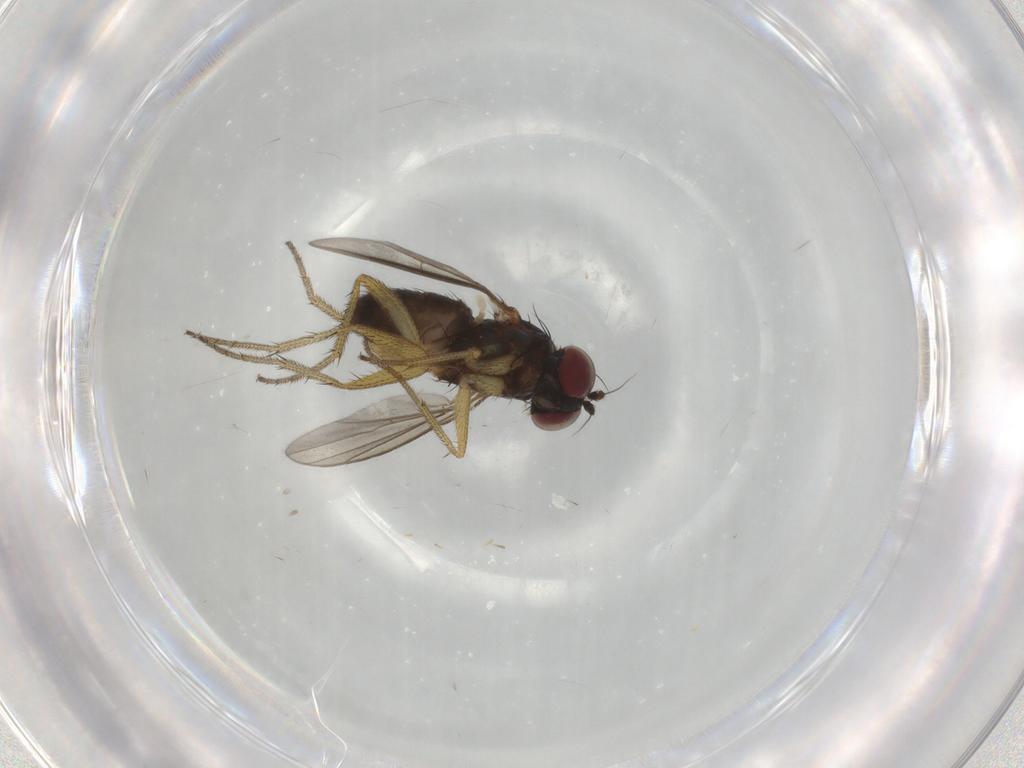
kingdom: Animalia
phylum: Arthropoda
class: Insecta
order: Diptera
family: Dolichopodidae
